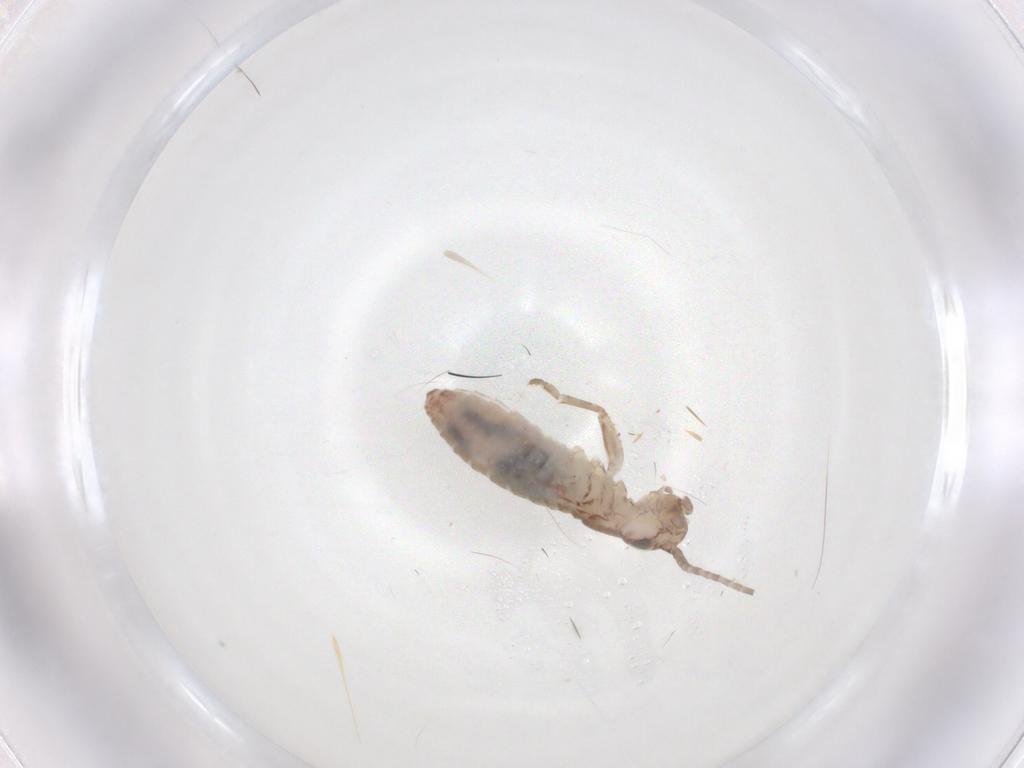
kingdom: Animalia
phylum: Arthropoda
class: Insecta
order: Orthoptera
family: Mogoplistidae
